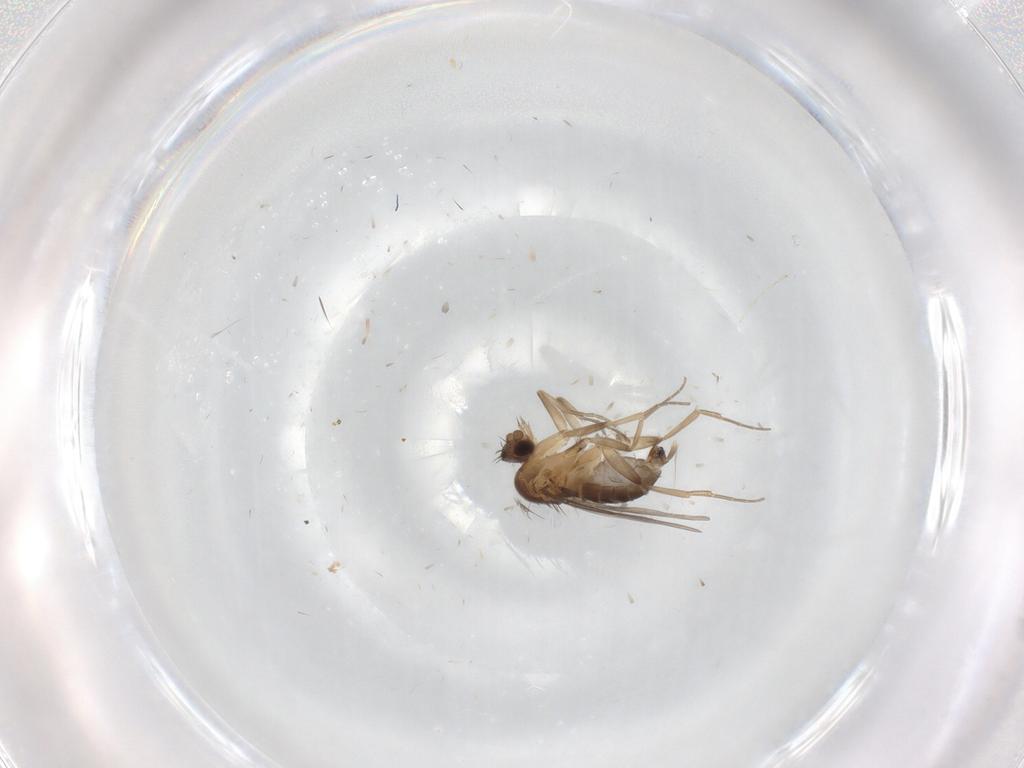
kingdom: Animalia
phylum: Arthropoda
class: Insecta
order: Diptera
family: Phoridae
